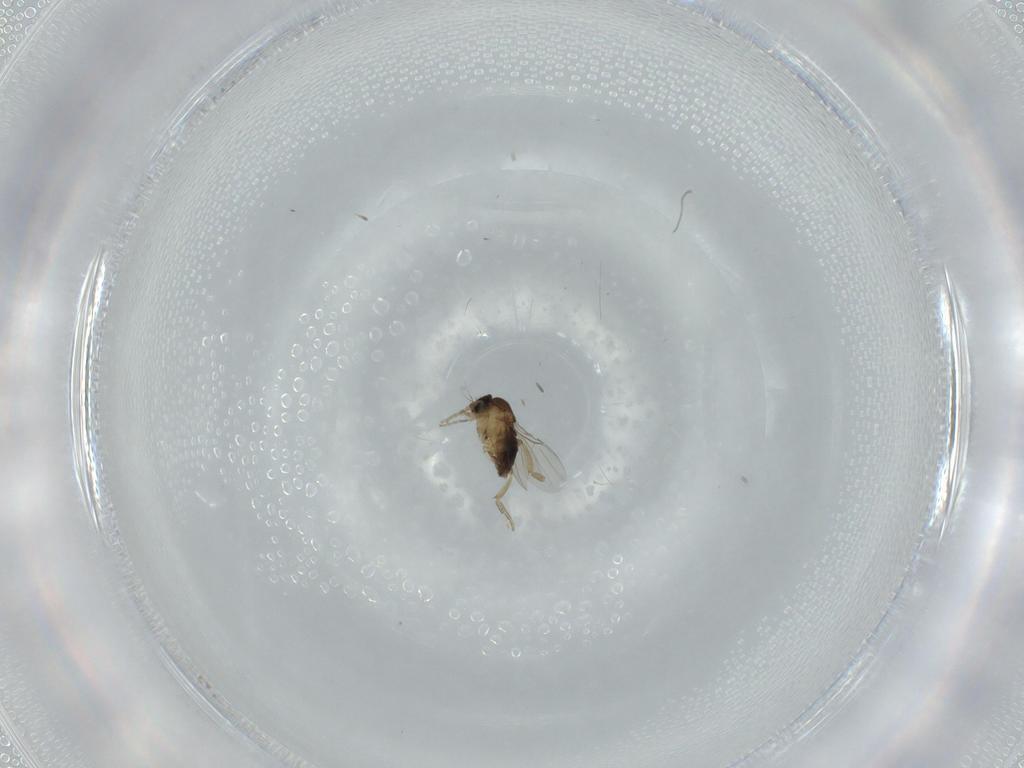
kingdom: Animalia
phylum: Arthropoda
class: Insecta
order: Diptera
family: Phoridae
